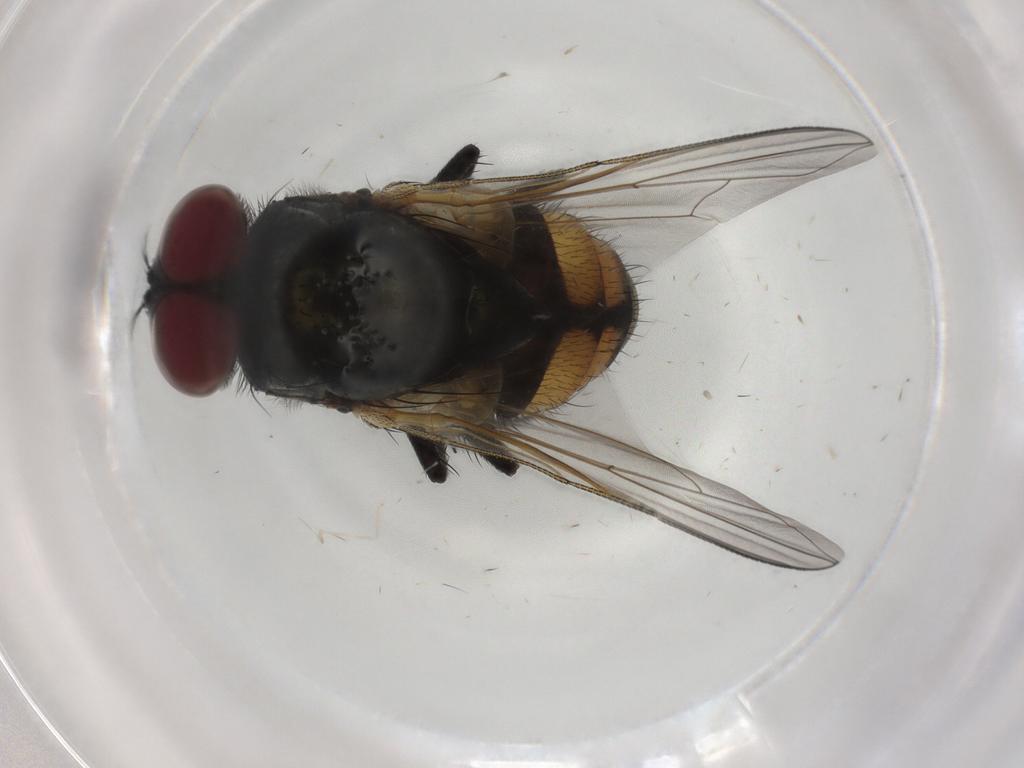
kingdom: Animalia
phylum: Arthropoda
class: Insecta
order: Diptera
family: Muscidae
